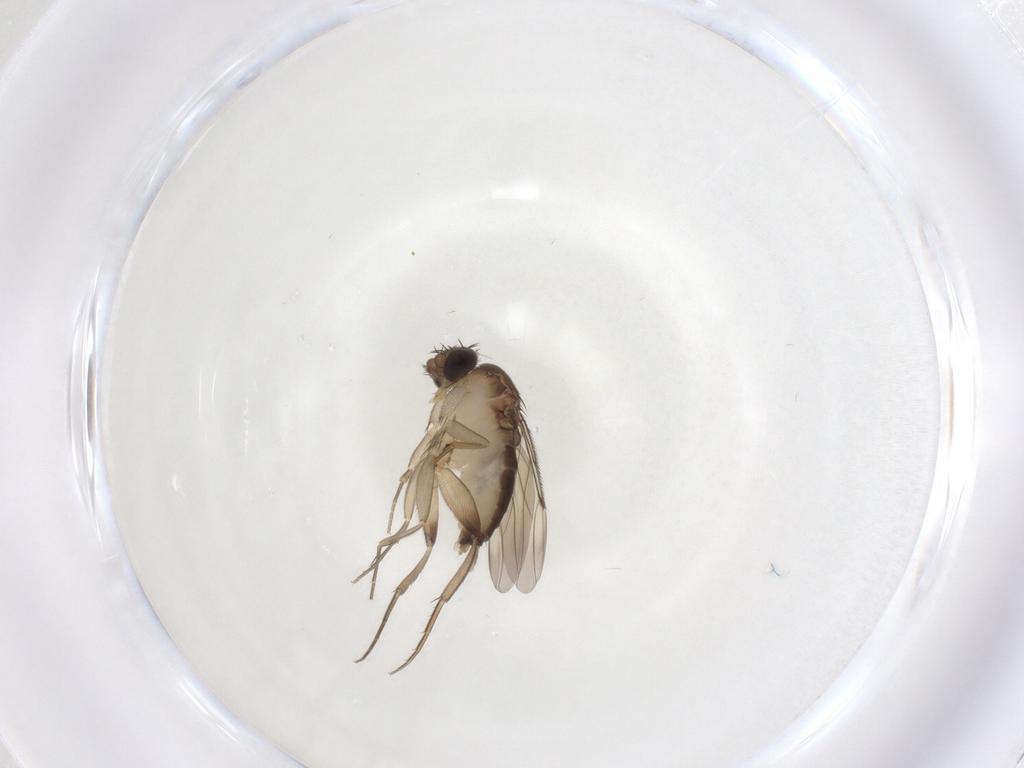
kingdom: Animalia
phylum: Arthropoda
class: Insecta
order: Diptera
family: Phoridae
